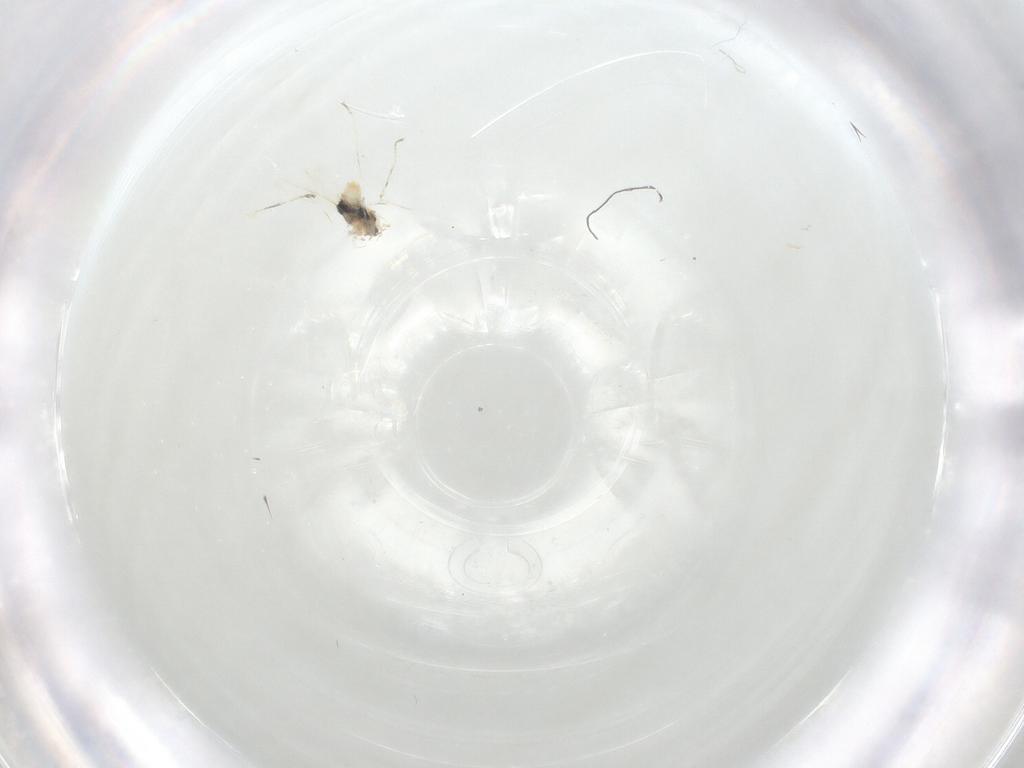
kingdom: Animalia
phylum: Arthropoda
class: Insecta
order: Diptera
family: Cecidomyiidae
